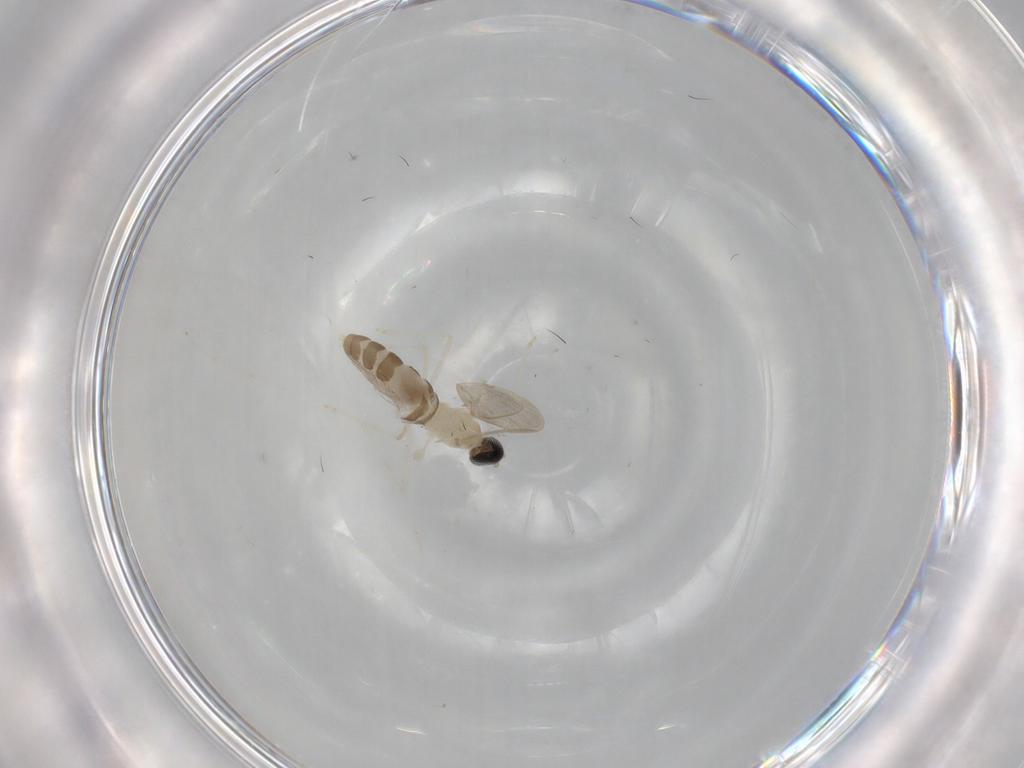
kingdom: Animalia
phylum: Arthropoda
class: Insecta
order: Diptera
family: Cecidomyiidae
